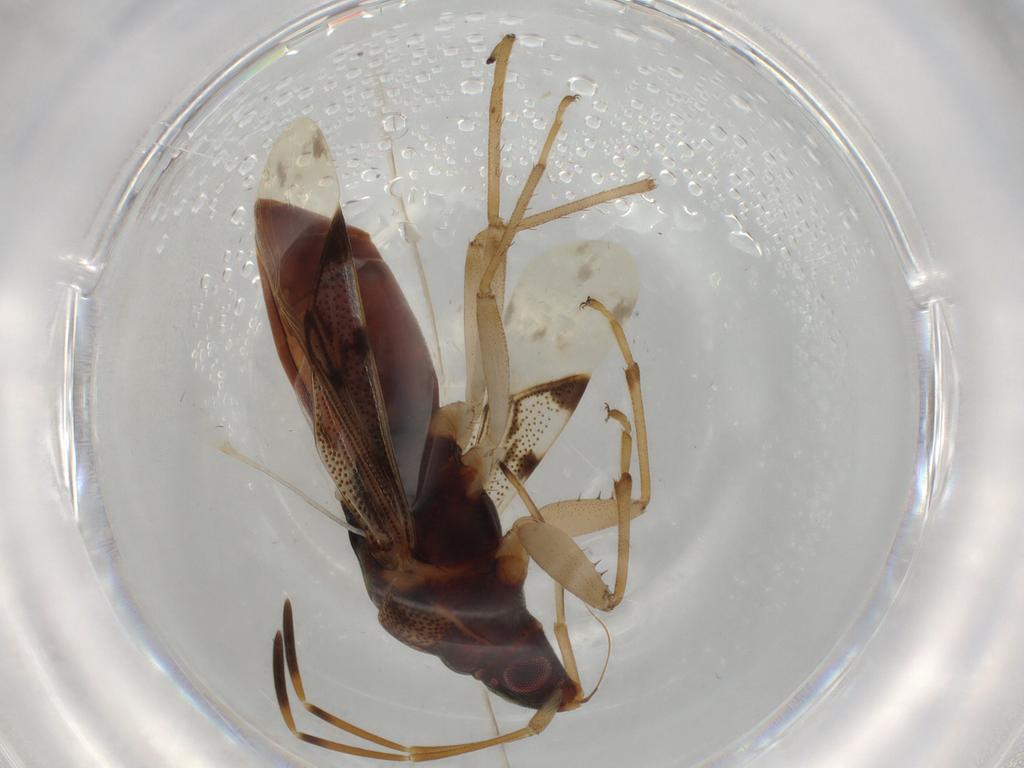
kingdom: Animalia
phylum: Arthropoda
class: Insecta
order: Hemiptera
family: Rhyparochromidae
